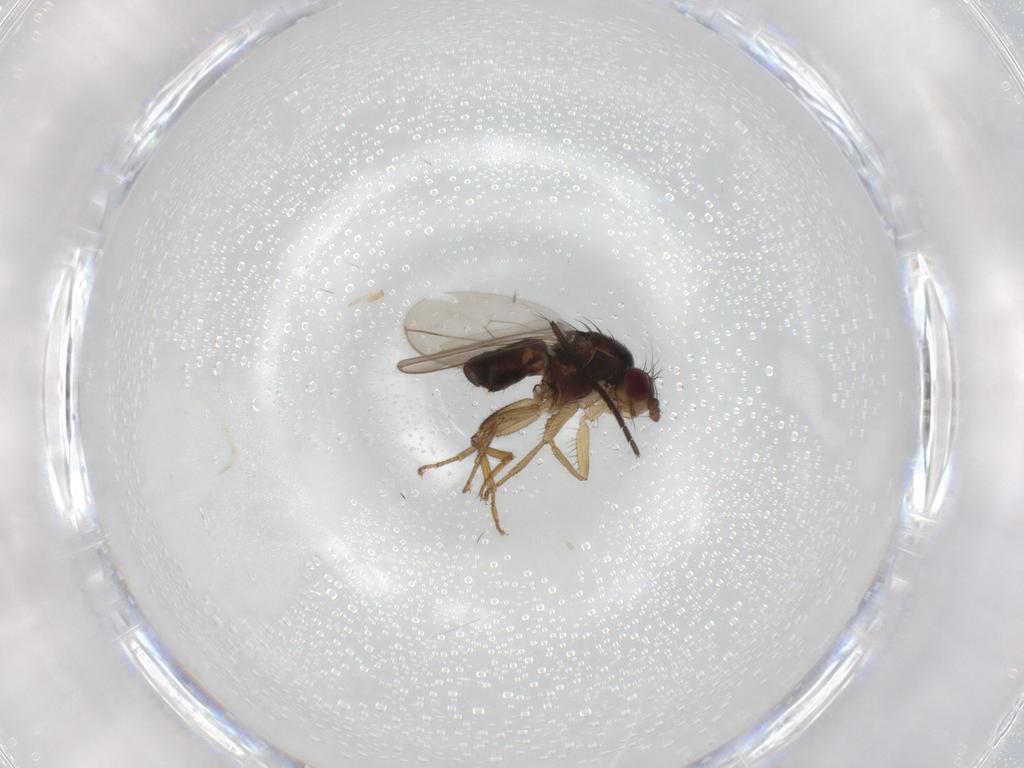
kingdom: Animalia
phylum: Arthropoda
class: Insecta
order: Diptera
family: Sciaridae
